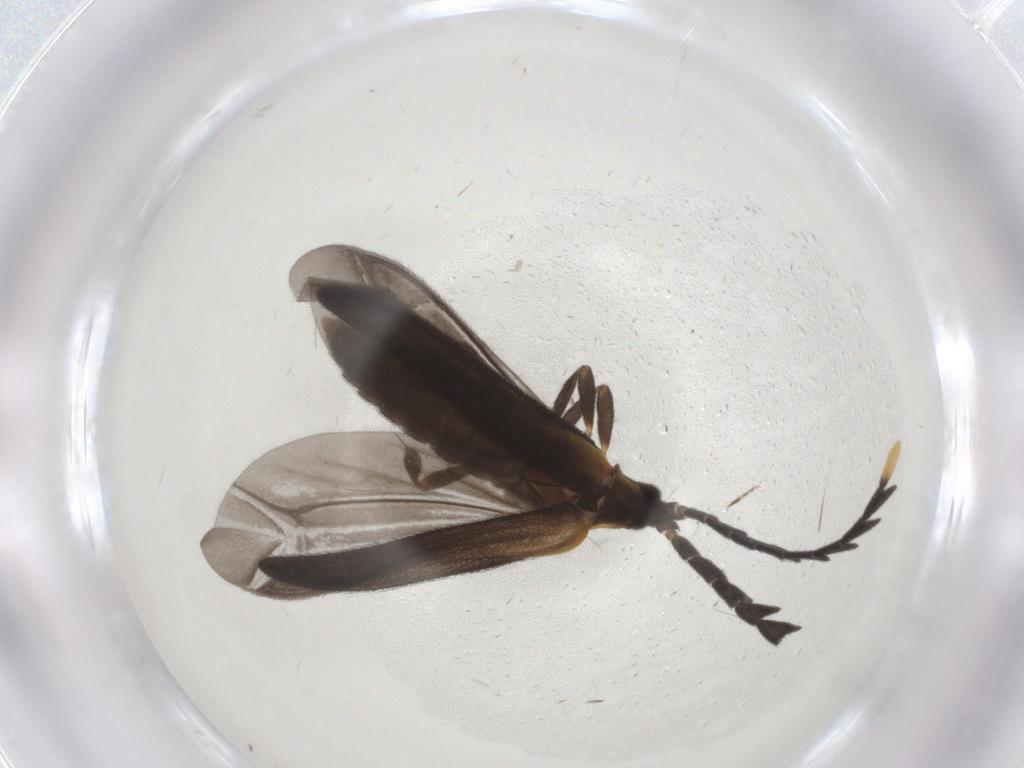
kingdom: Animalia
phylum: Arthropoda
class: Insecta
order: Coleoptera
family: Lycidae
